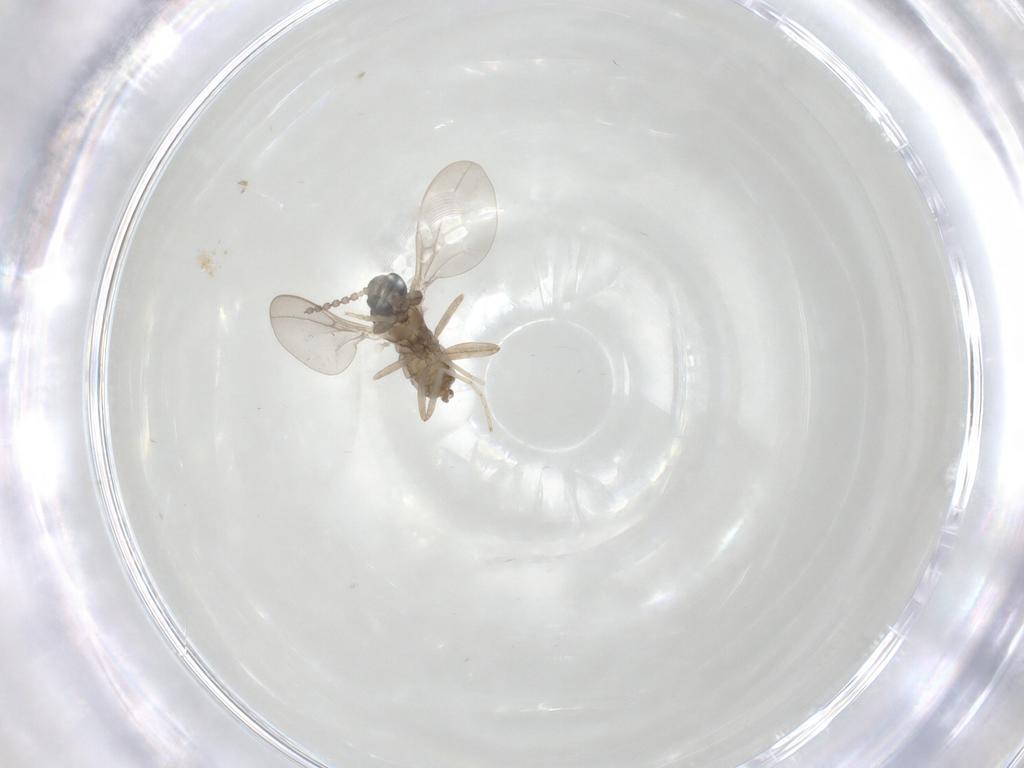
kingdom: Animalia
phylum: Arthropoda
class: Insecta
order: Diptera
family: Cecidomyiidae
